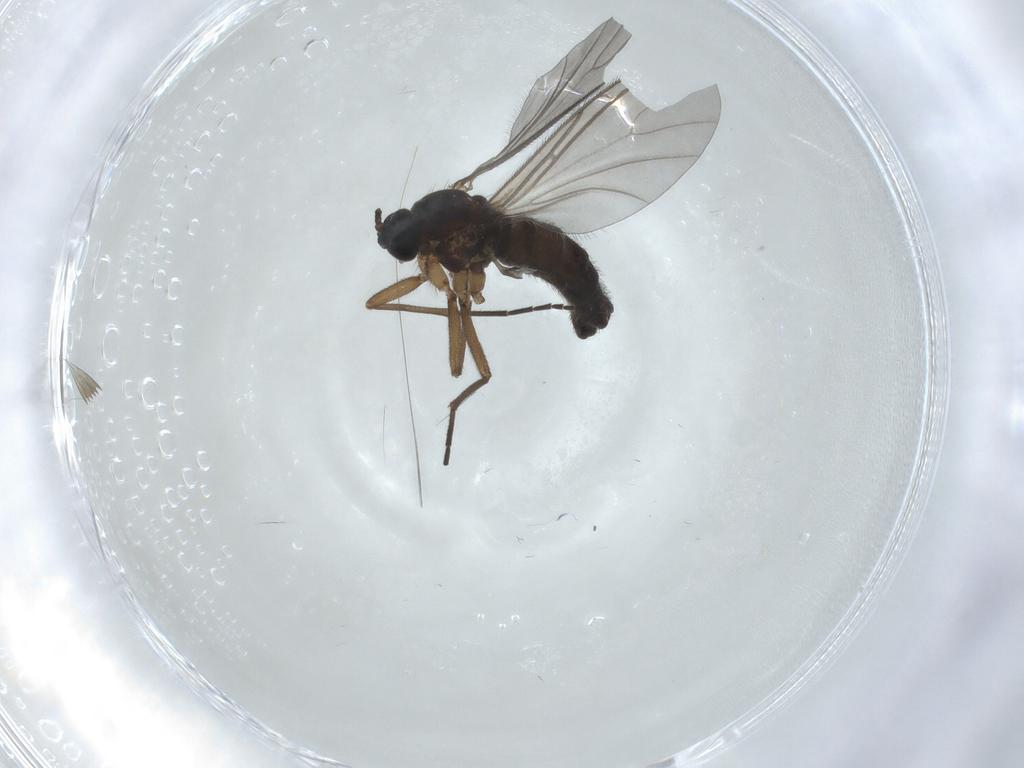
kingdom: Animalia
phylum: Arthropoda
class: Insecta
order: Diptera
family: Sciaridae
